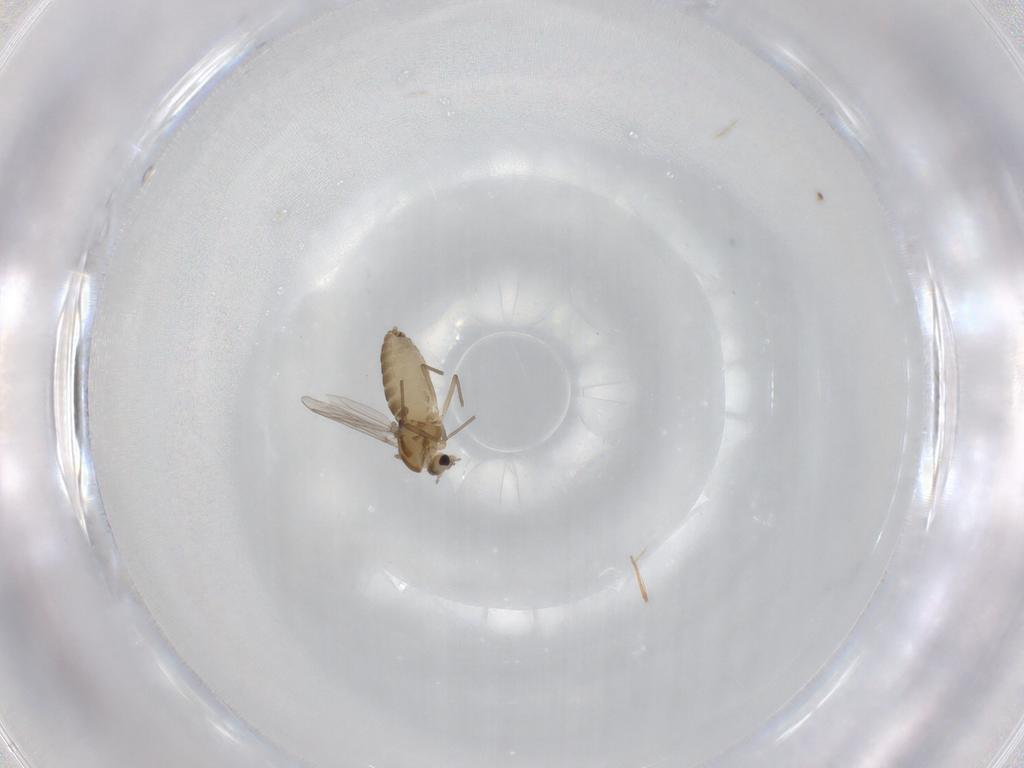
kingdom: Animalia
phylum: Arthropoda
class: Insecta
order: Diptera
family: Chironomidae
